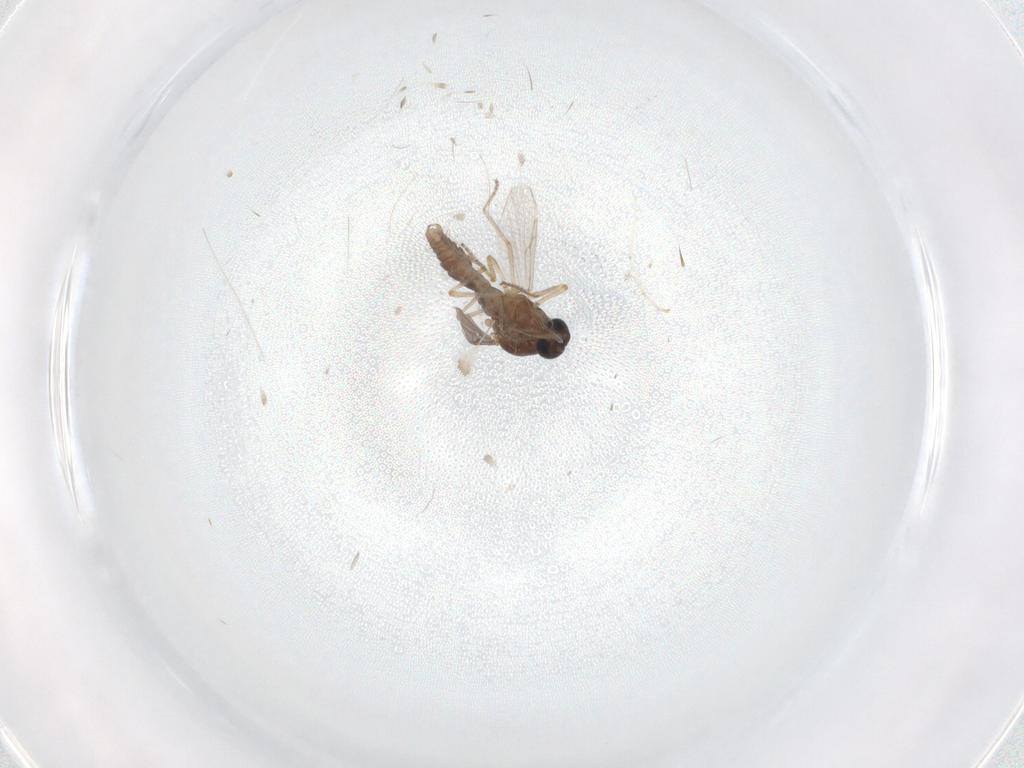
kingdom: Animalia
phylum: Arthropoda
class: Insecta
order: Diptera
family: Ceratopogonidae
